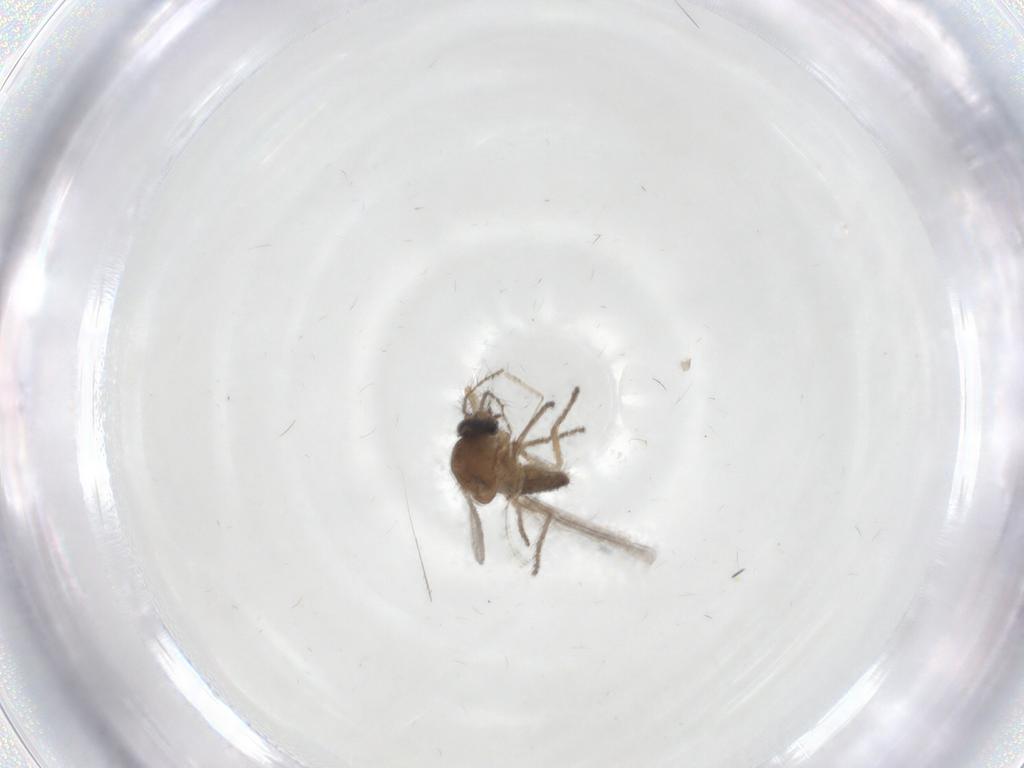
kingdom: Animalia
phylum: Arthropoda
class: Insecta
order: Diptera
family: Ceratopogonidae
